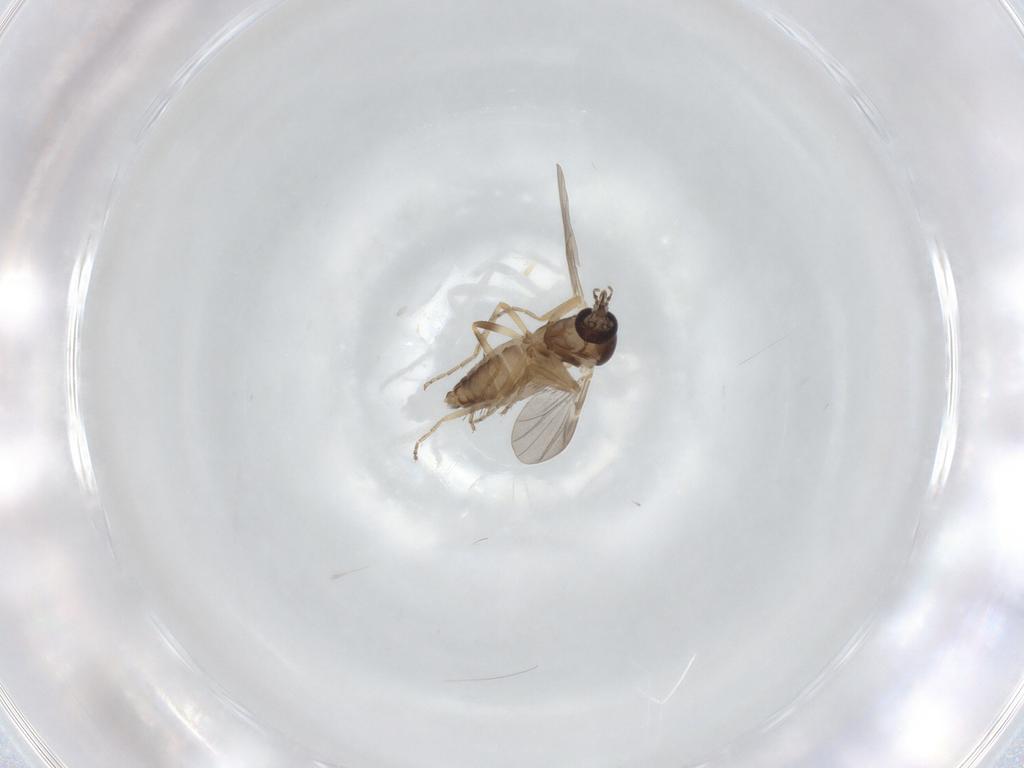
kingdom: Animalia
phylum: Arthropoda
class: Insecta
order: Diptera
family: Ceratopogonidae
